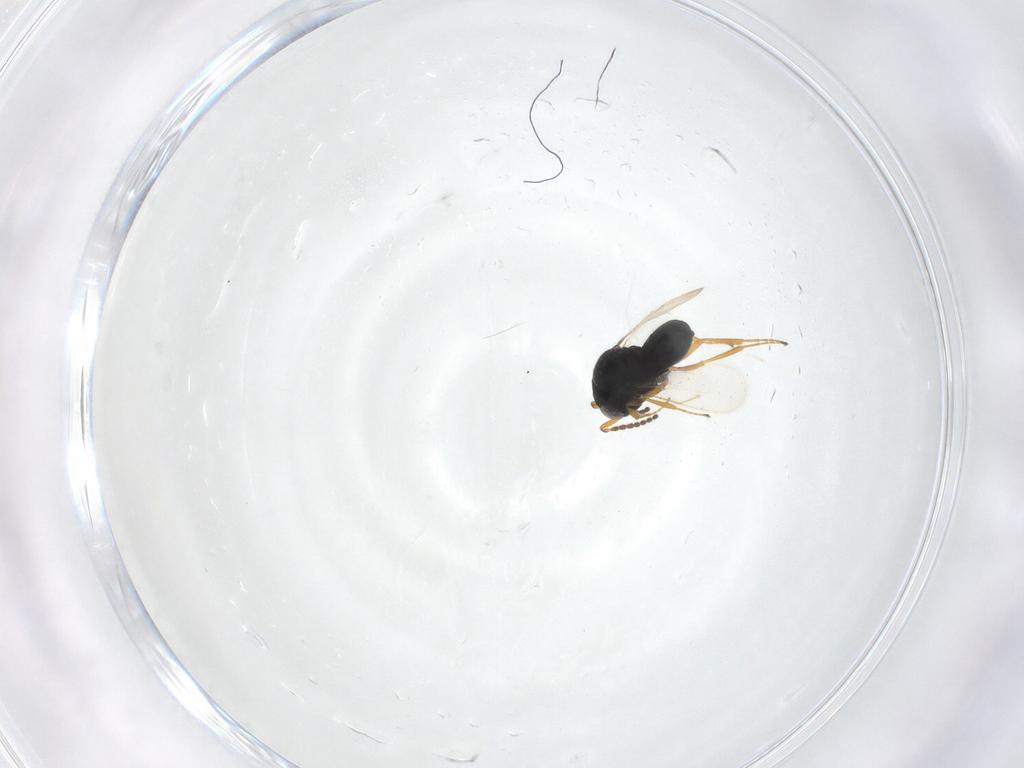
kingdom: Animalia
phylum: Arthropoda
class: Insecta
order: Hymenoptera
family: Scelionidae
